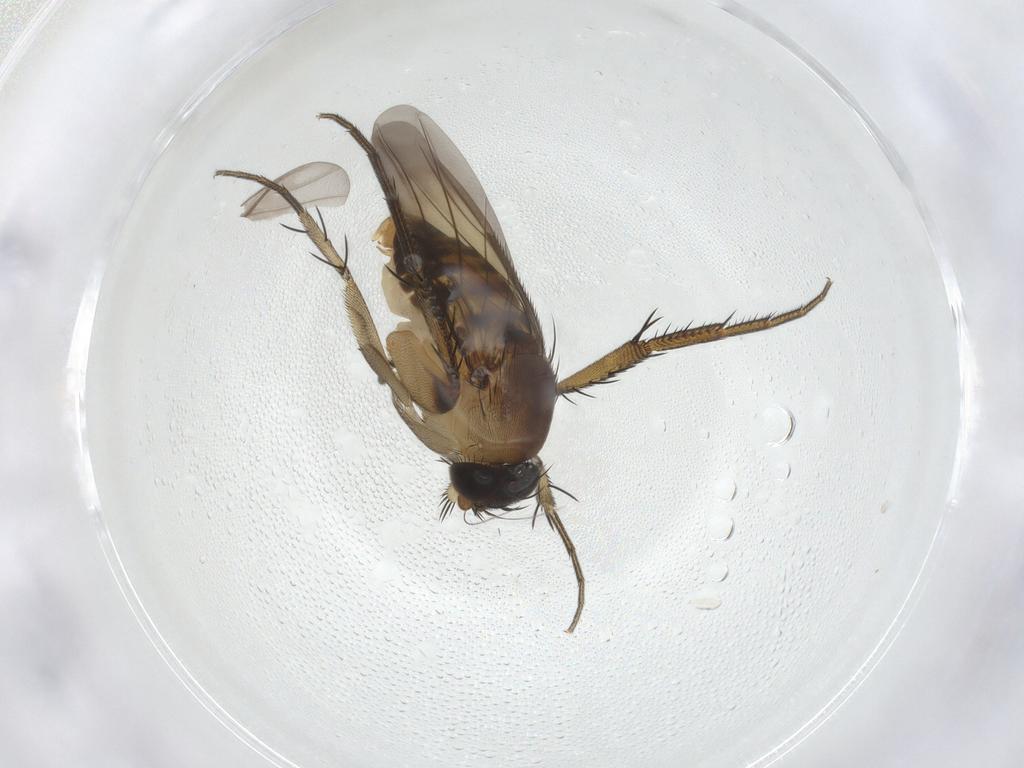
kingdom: Animalia
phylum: Arthropoda
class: Insecta
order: Diptera
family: Phoridae
